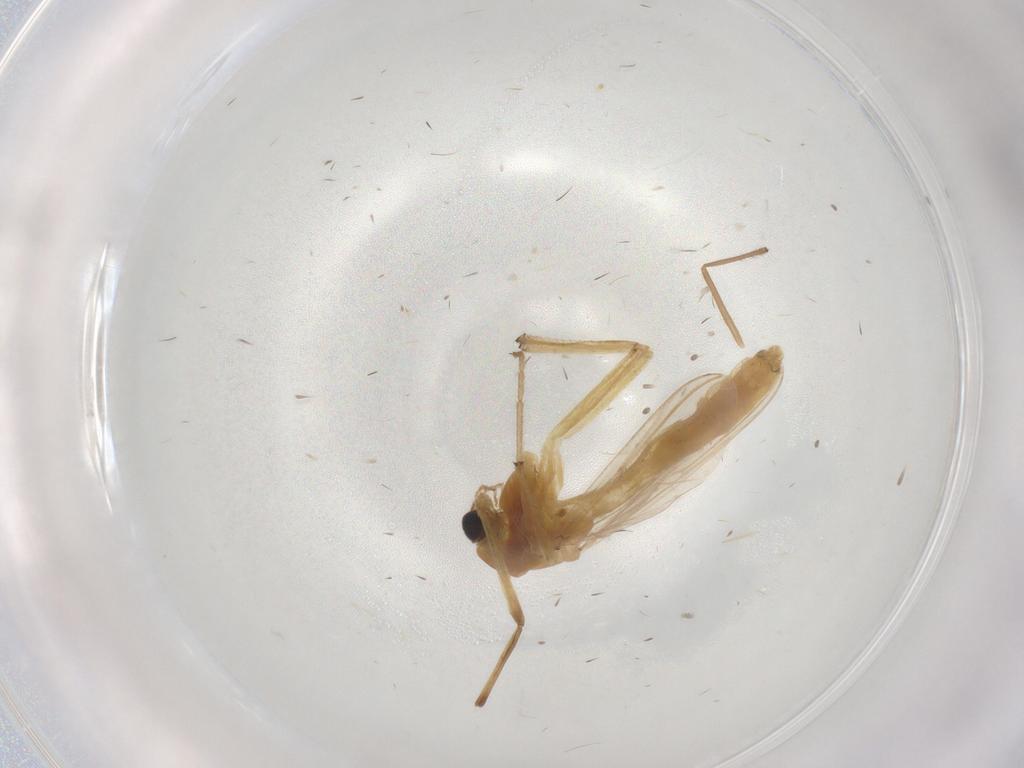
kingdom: Animalia
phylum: Arthropoda
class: Insecta
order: Diptera
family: Chironomidae
